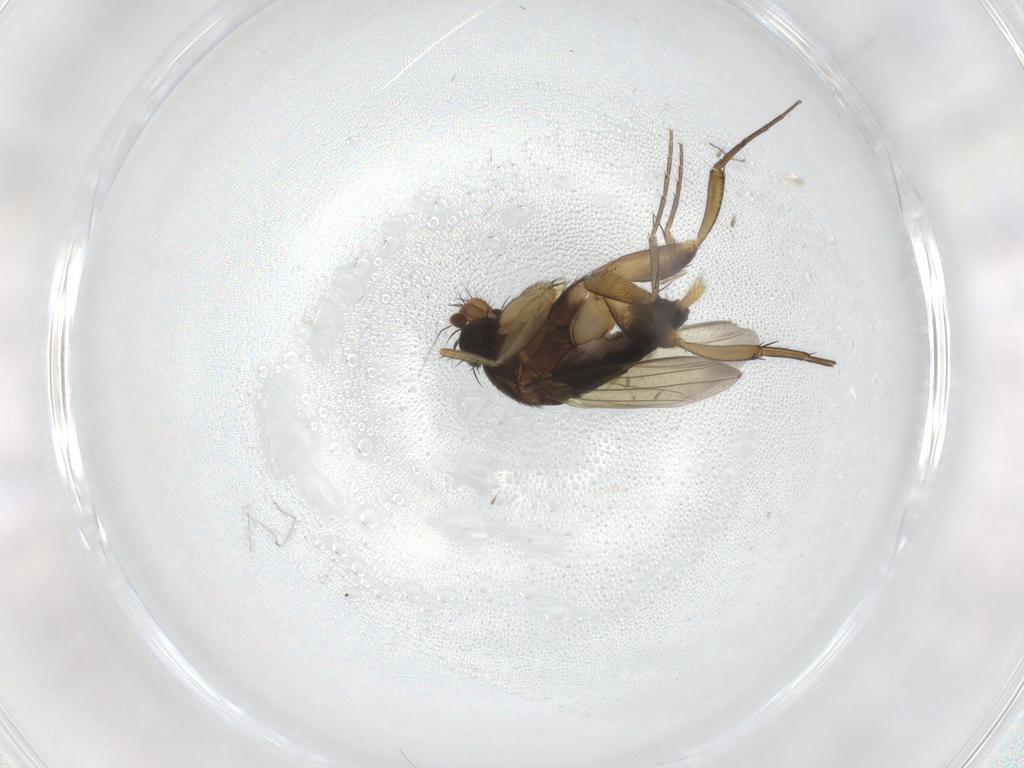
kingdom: Animalia
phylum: Arthropoda
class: Insecta
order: Diptera
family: Phoridae
